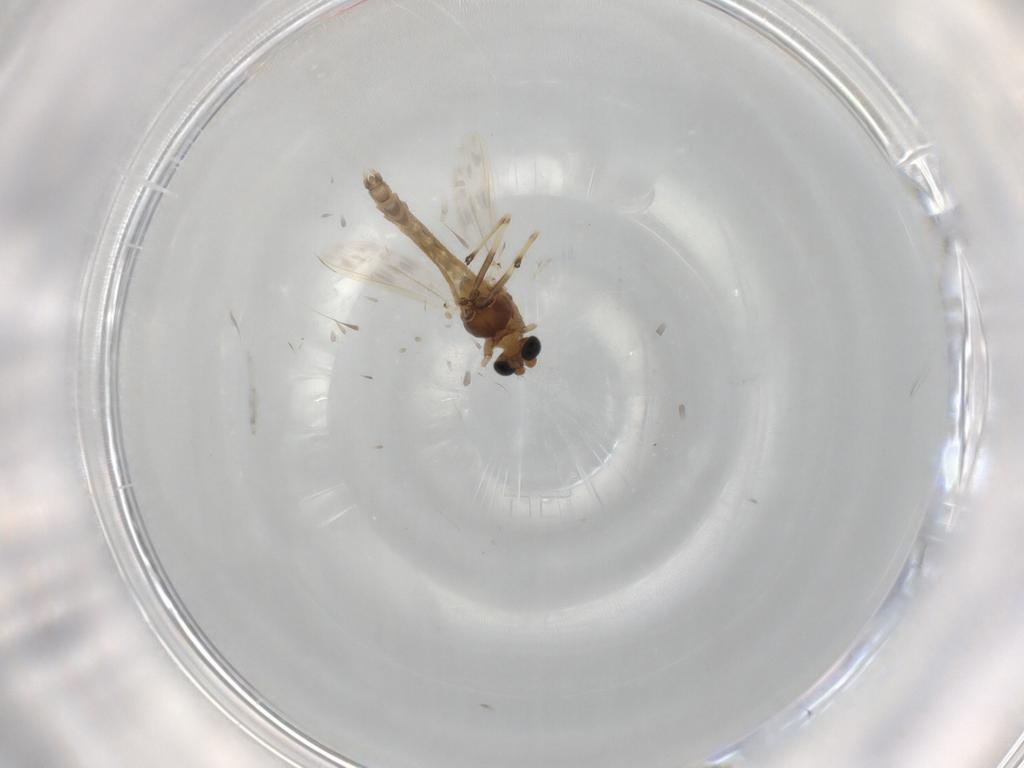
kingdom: Animalia
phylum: Arthropoda
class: Insecta
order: Diptera
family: Chironomidae
